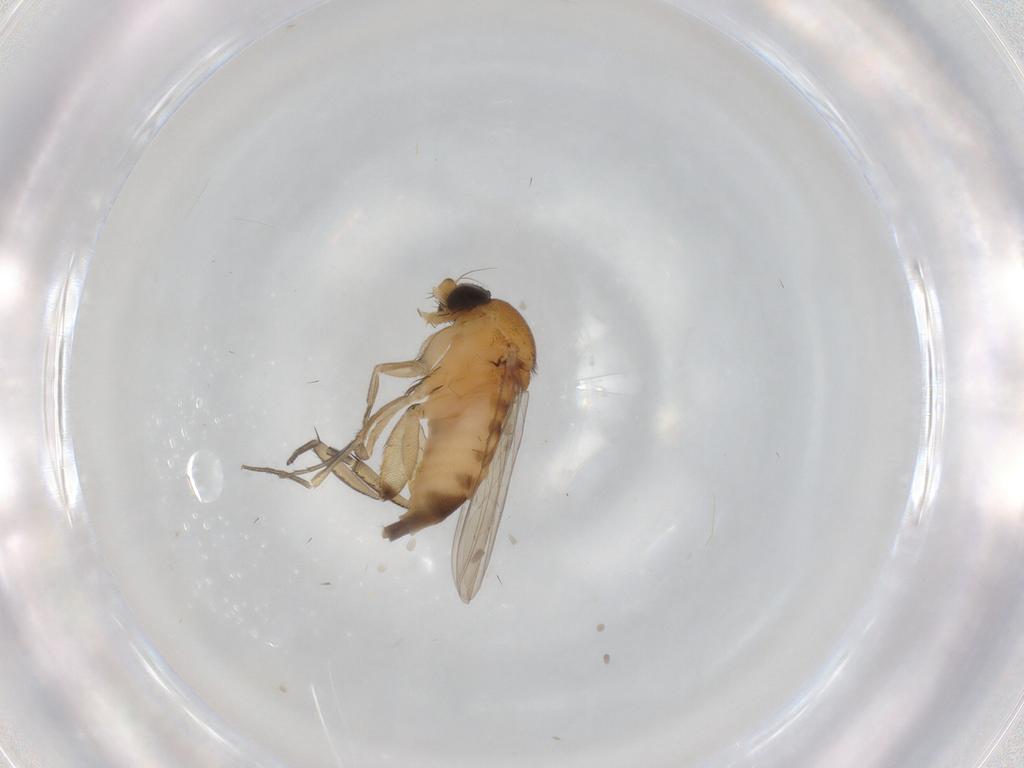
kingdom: Animalia
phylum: Arthropoda
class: Insecta
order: Diptera
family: Phoridae
